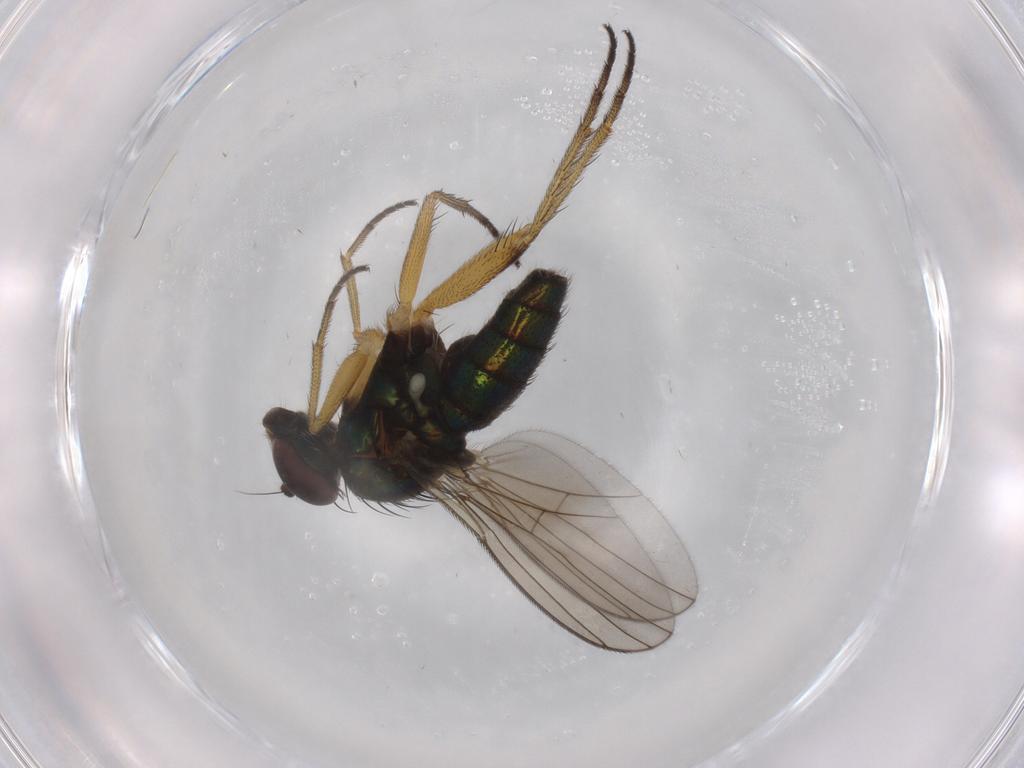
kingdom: Animalia
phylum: Arthropoda
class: Insecta
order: Diptera
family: Dolichopodidae
